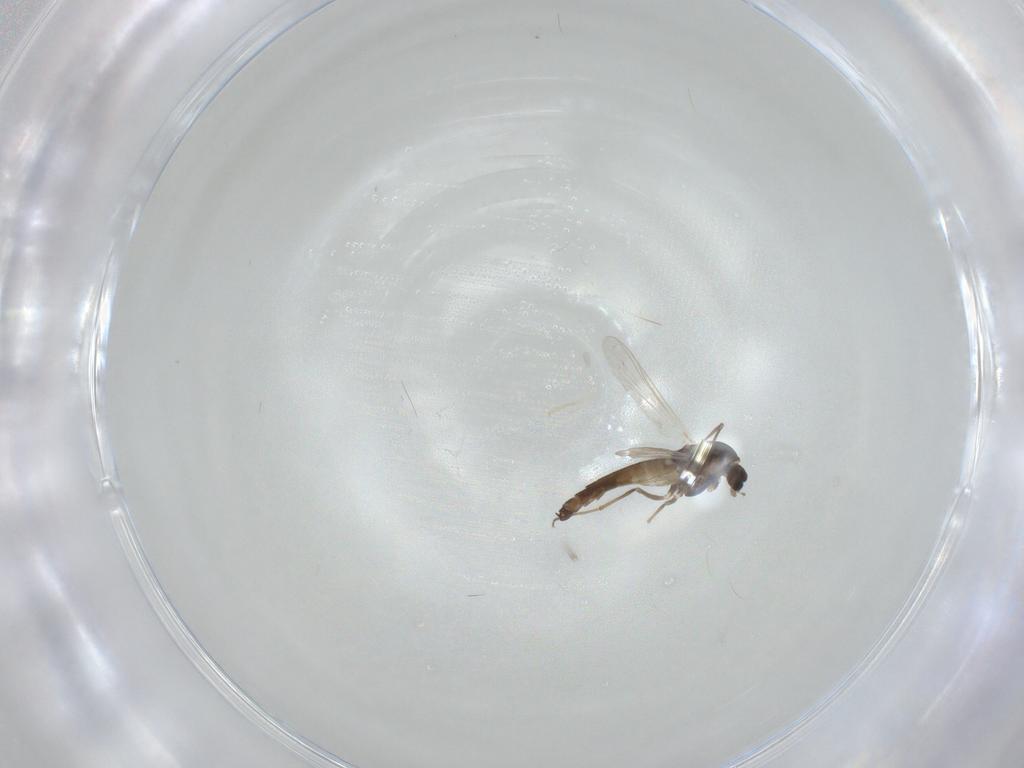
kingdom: Animalia
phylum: Arthropoda
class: Insecta
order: Diptera
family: Chironomidae
